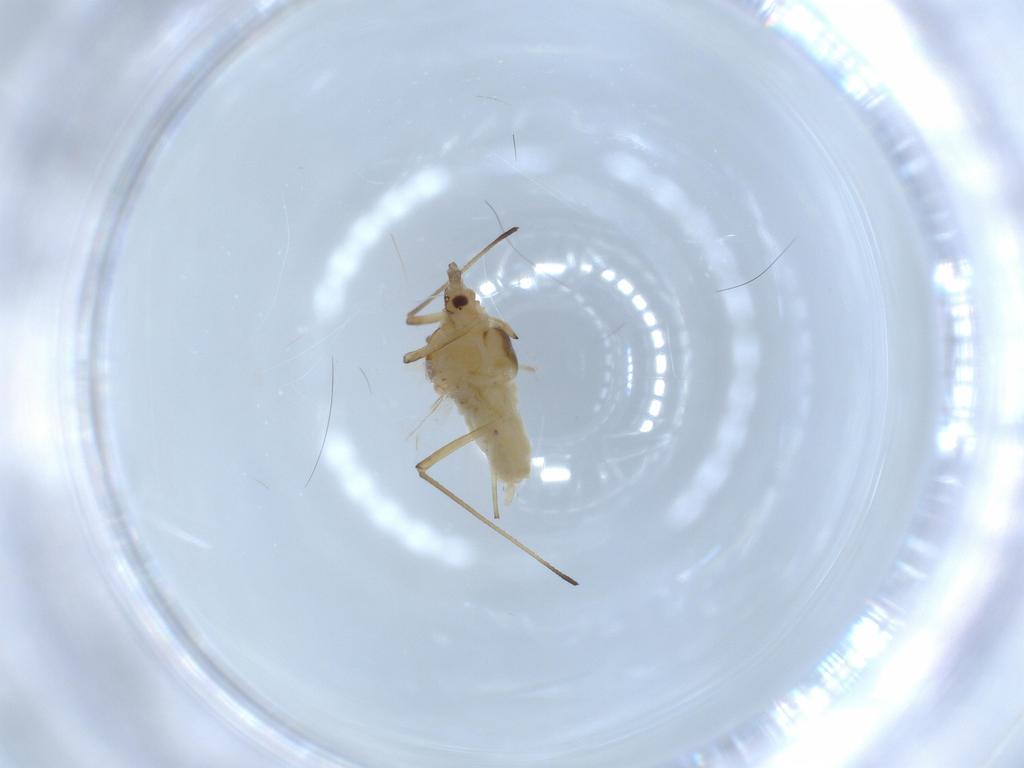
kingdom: Animalia
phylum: Arthropoda
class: Insecta
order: Hemiptera
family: Aphididae
